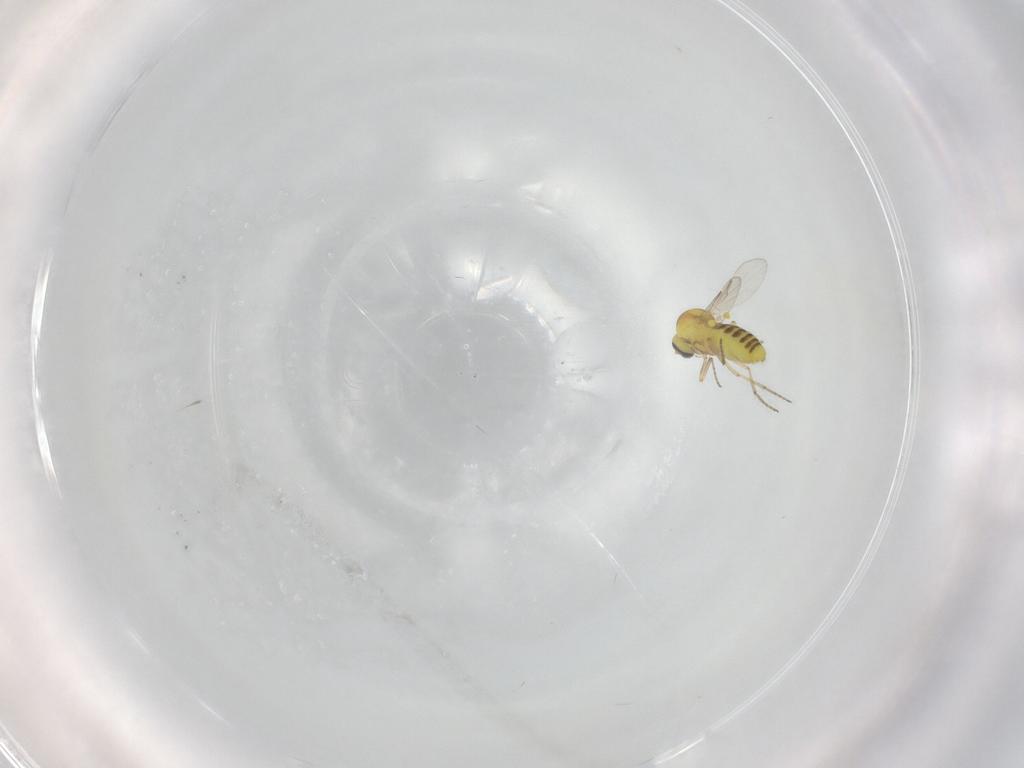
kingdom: Animalia
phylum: Arthropoda
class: Insecta
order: Diptera
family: Ceratopogonidae
